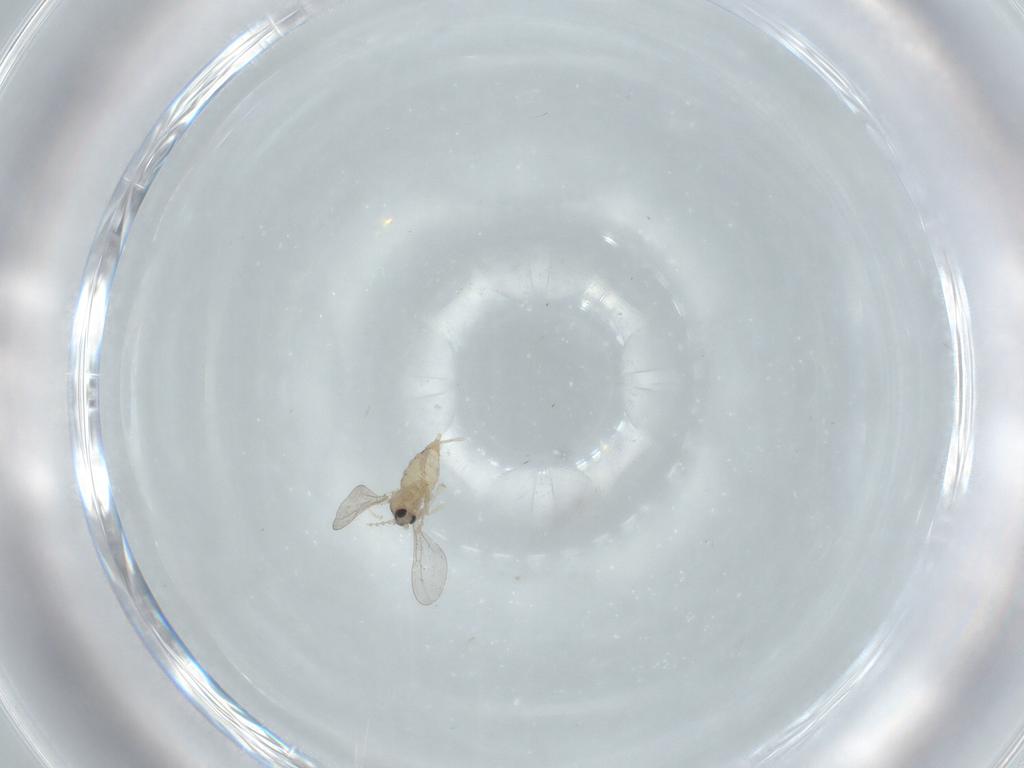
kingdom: Animalia
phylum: Arthropoda
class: Insecta
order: Diptera
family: Cecidomyiidae
